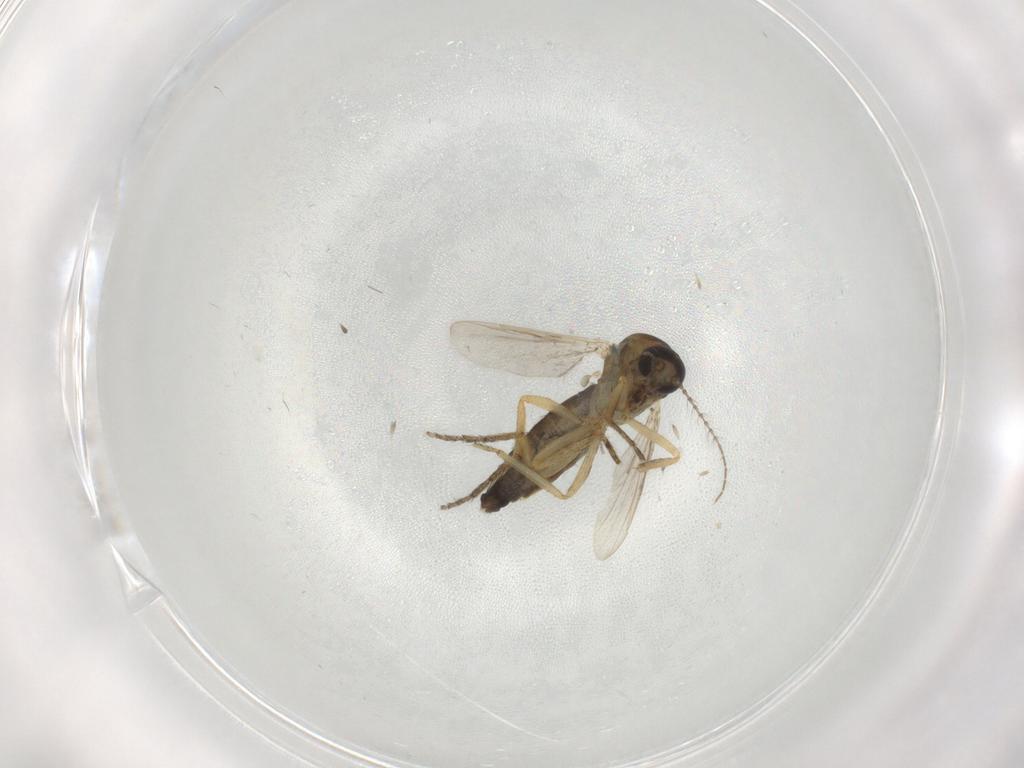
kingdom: Animalia
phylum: Arthropoda
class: Insecta
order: Diptera
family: Ceratopogonidae
